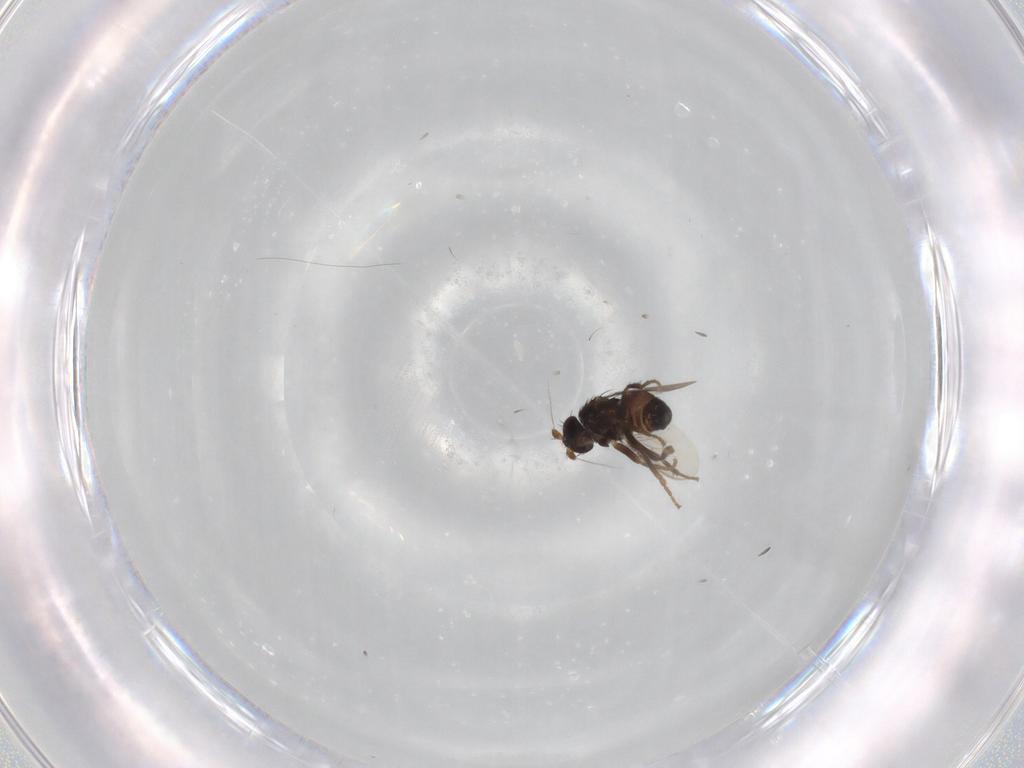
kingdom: Animalia
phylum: Arthropoda
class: Insecta
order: Diptera
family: Sphaeroceridae
